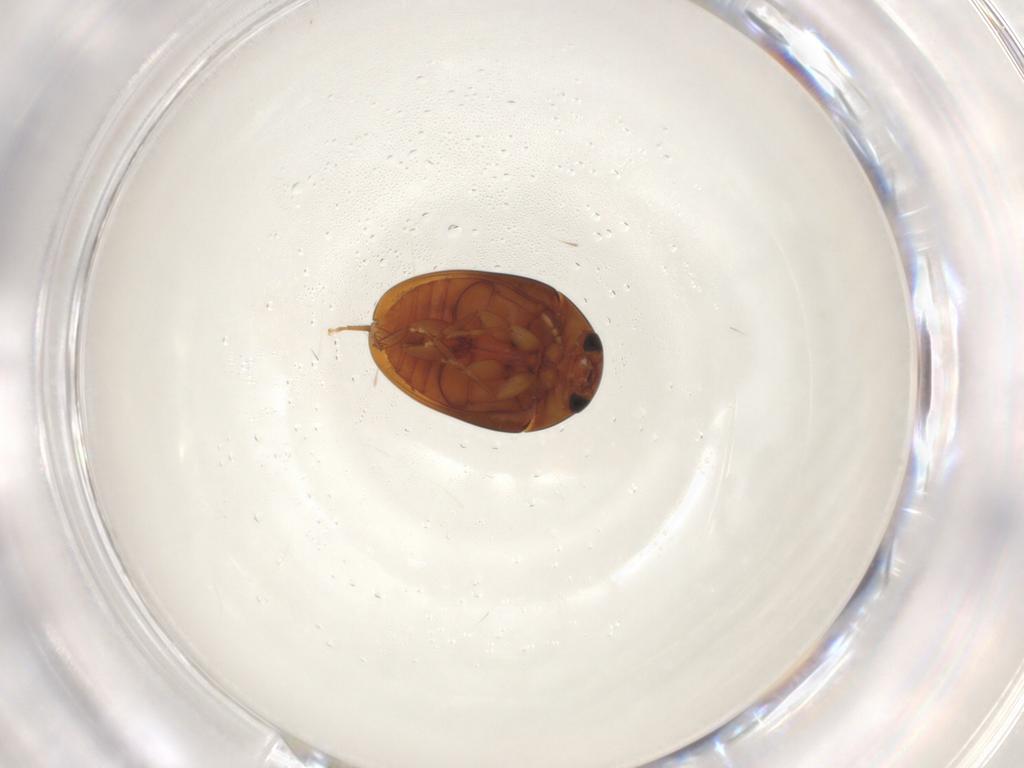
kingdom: Animalia
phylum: Arthropoda
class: Insecta
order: Coleoptera
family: Phalacridae
